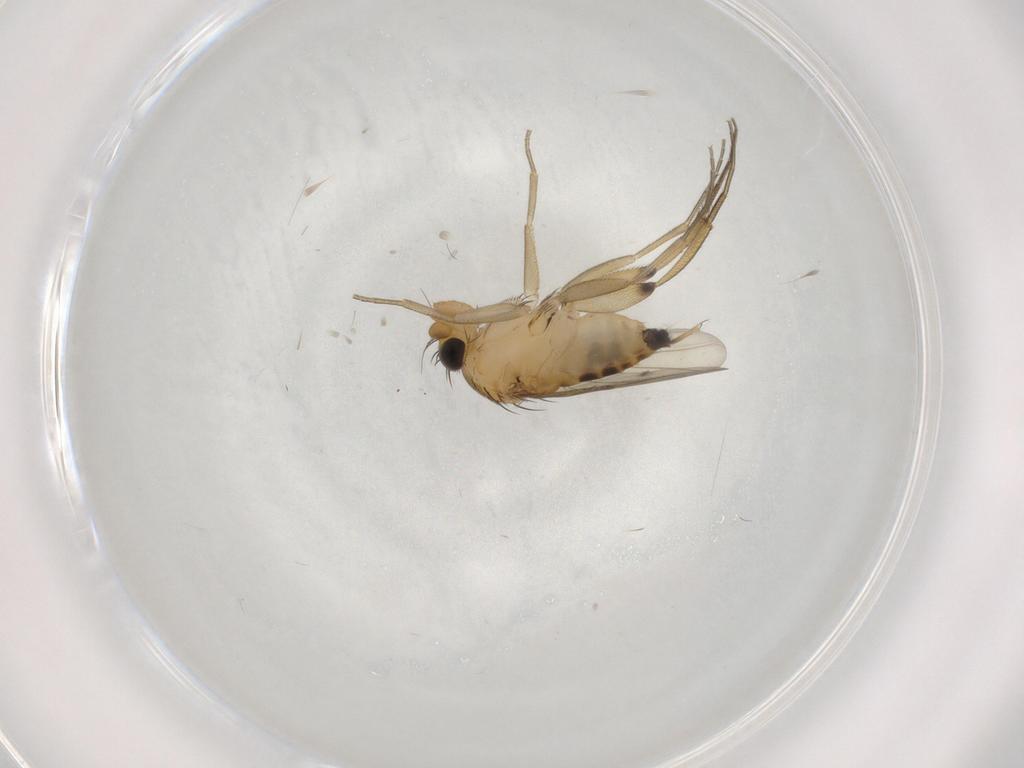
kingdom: Animalia
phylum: Arthropoda
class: Insecta
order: Diptera
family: Phoridae
